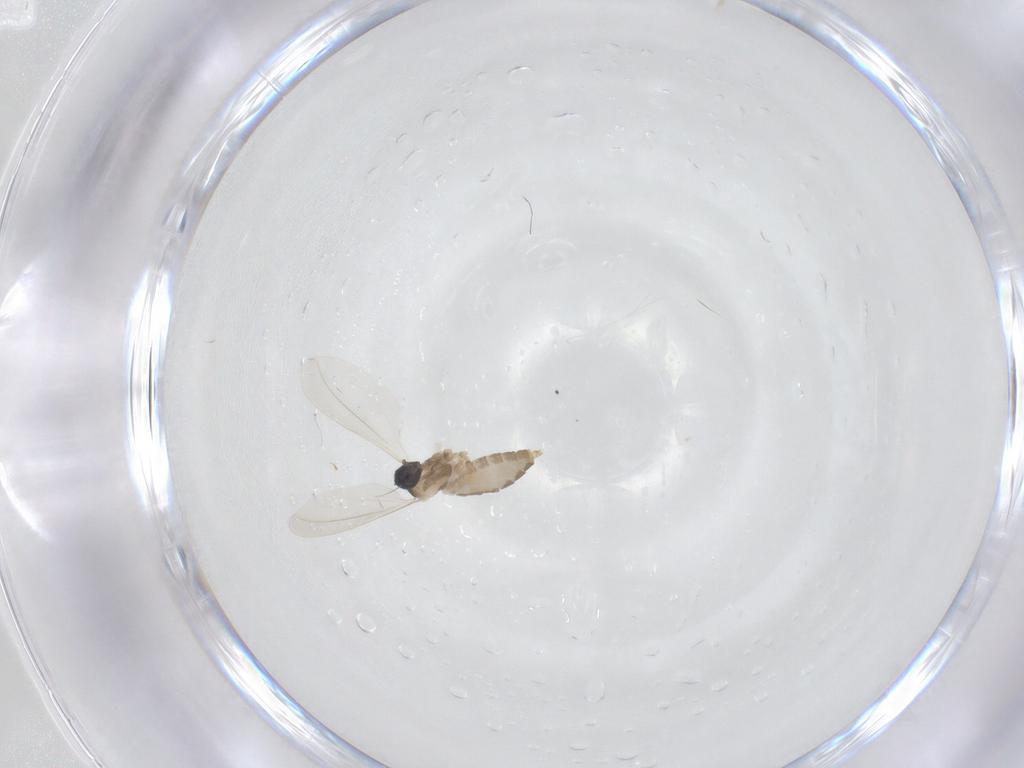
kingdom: Animalia
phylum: Arthropoda
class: Insecta
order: Diptera
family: Cecidomyiidae
